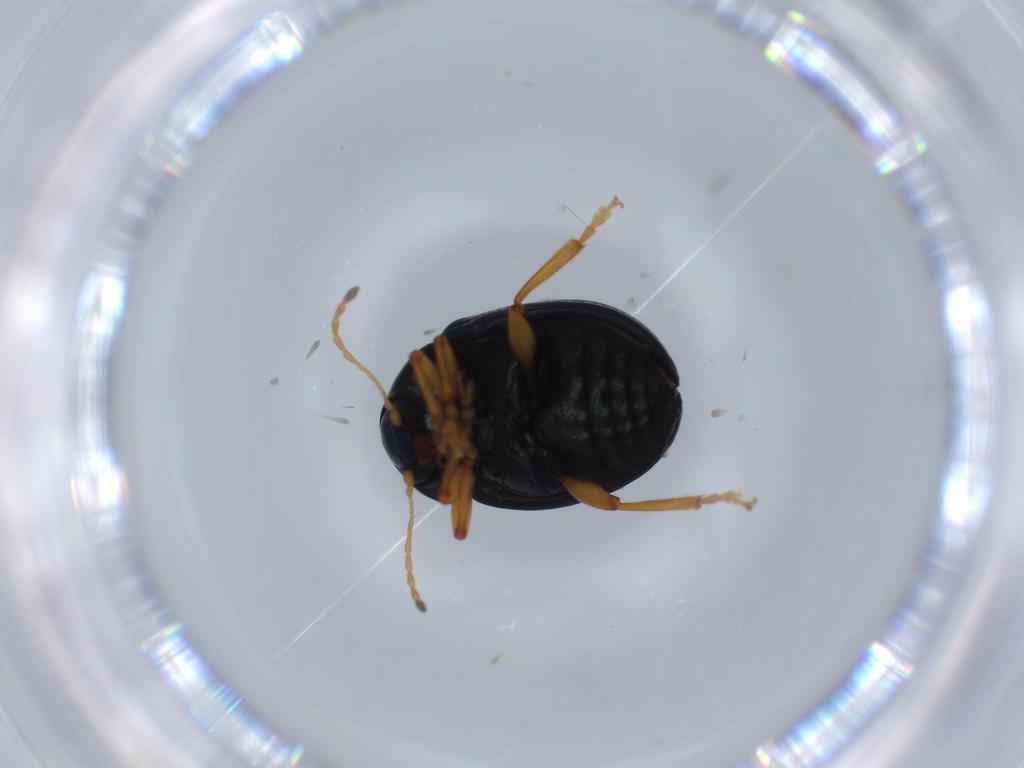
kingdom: Animalia
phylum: Arthropoda
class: Insecta
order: Coleoptera
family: Chrysomelidae
